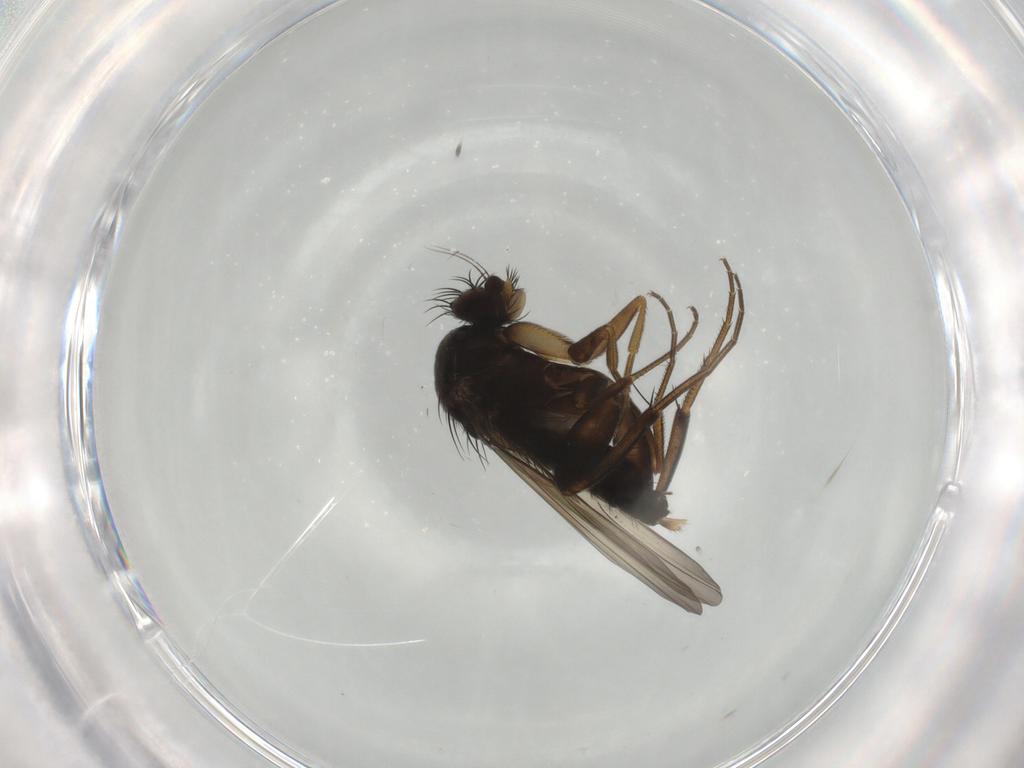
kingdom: Animalia
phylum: Arthropoda
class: Insecta
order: Diptera
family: Phoridae
